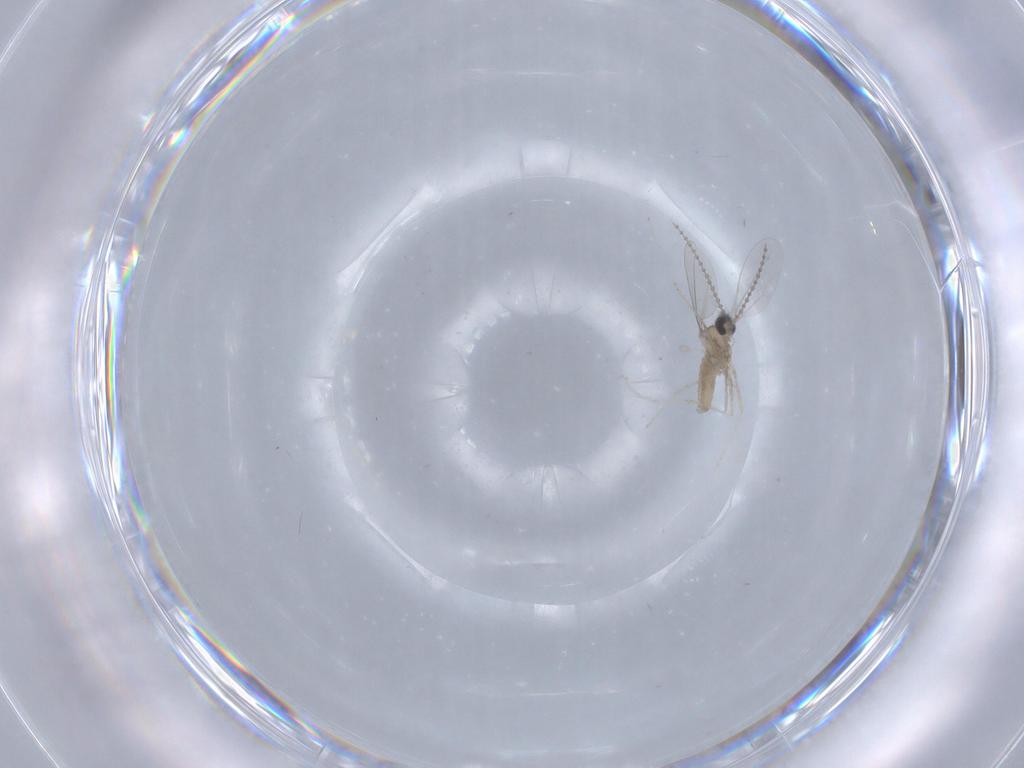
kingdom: Animalia
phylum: Arthropoda
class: Insecta
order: Diptera
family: Cecidomyiidae
